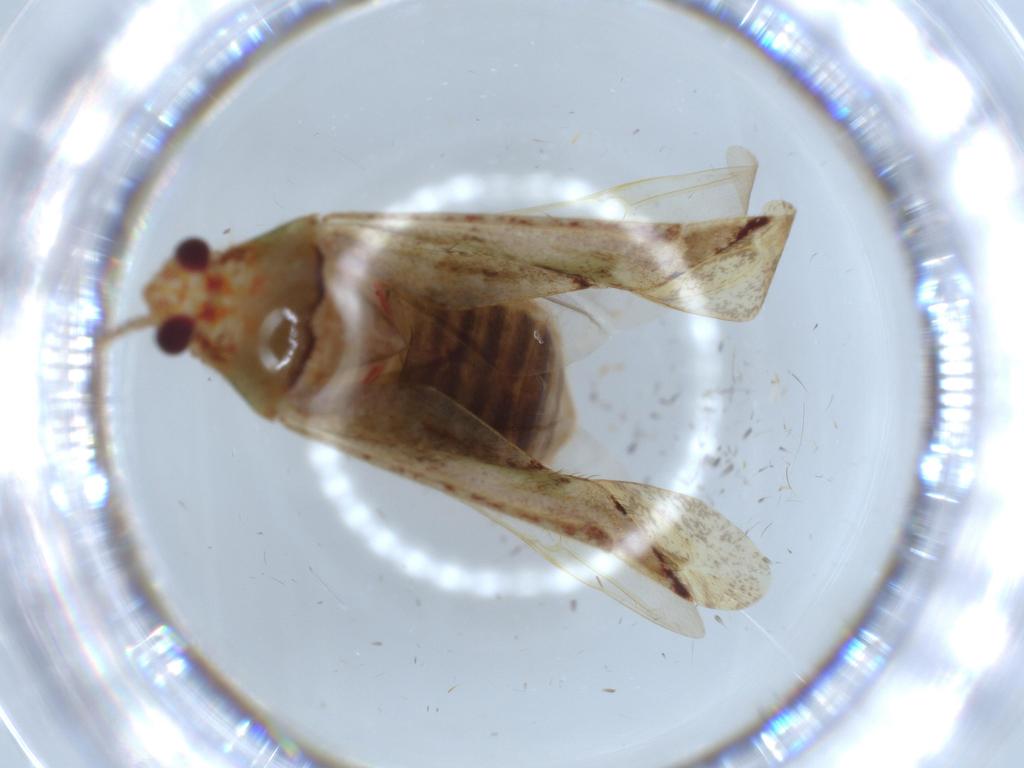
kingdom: Animalia
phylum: Arthropoda
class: Insecta
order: Hemiptera
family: Miridae
